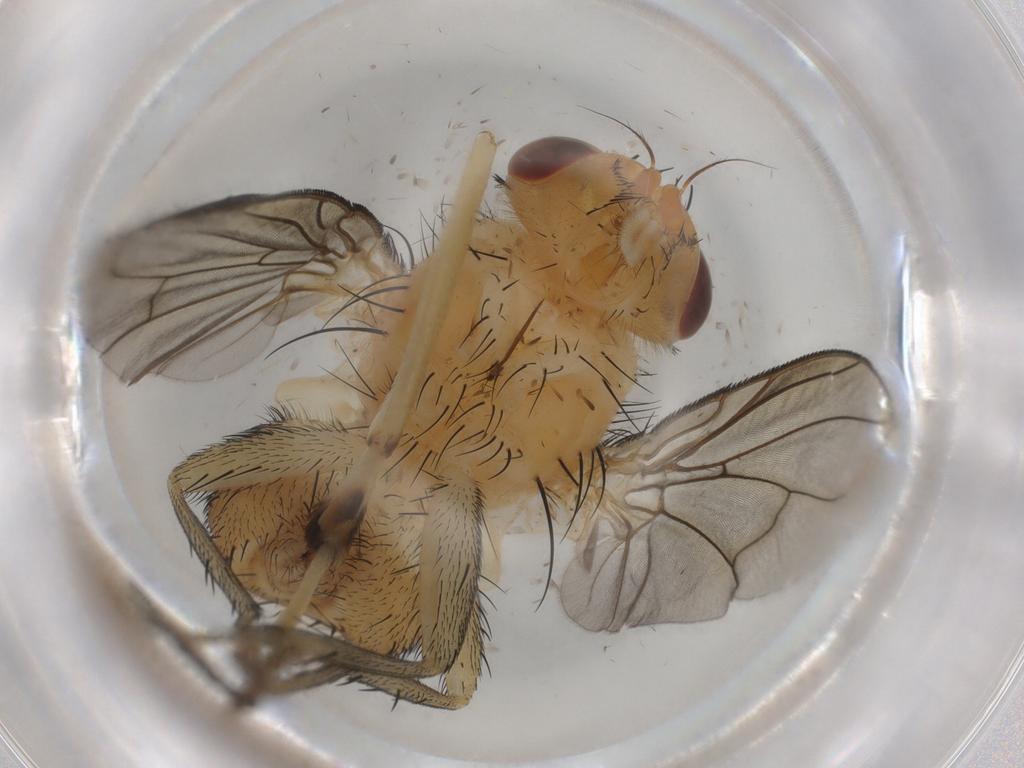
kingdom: Animalia
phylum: Arthropoda
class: Insecta
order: Diptera
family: Psychodidae
